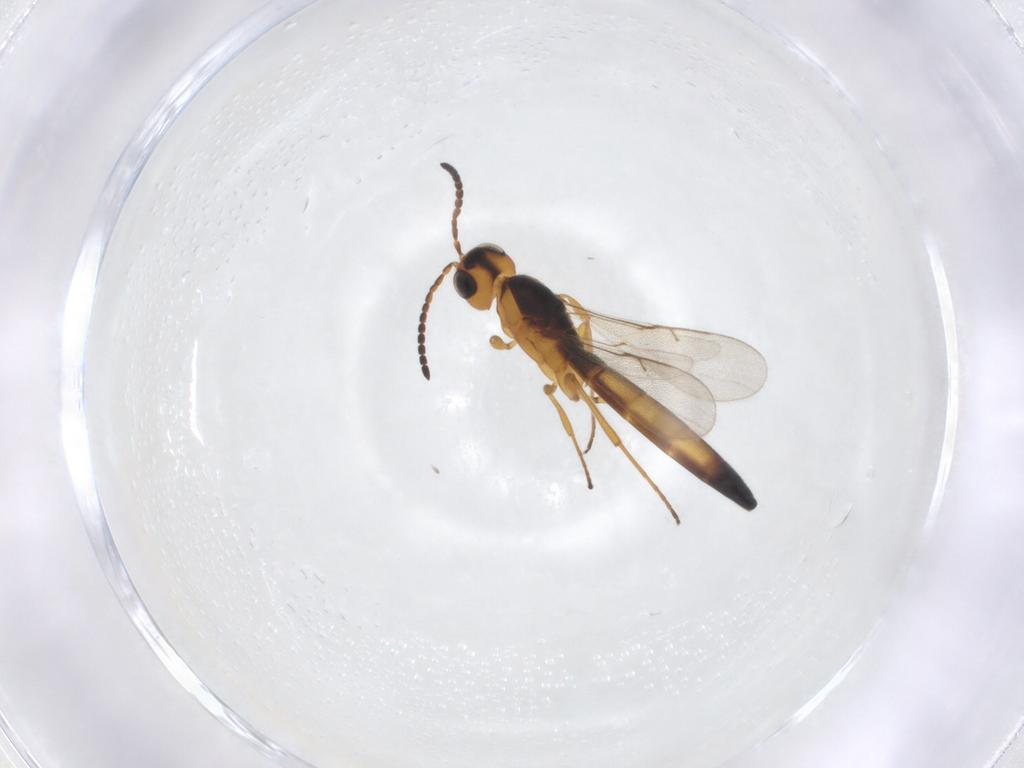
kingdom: Animalia
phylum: Arthropoda
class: Insecta
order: Hymenoptera
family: Scelionidae
